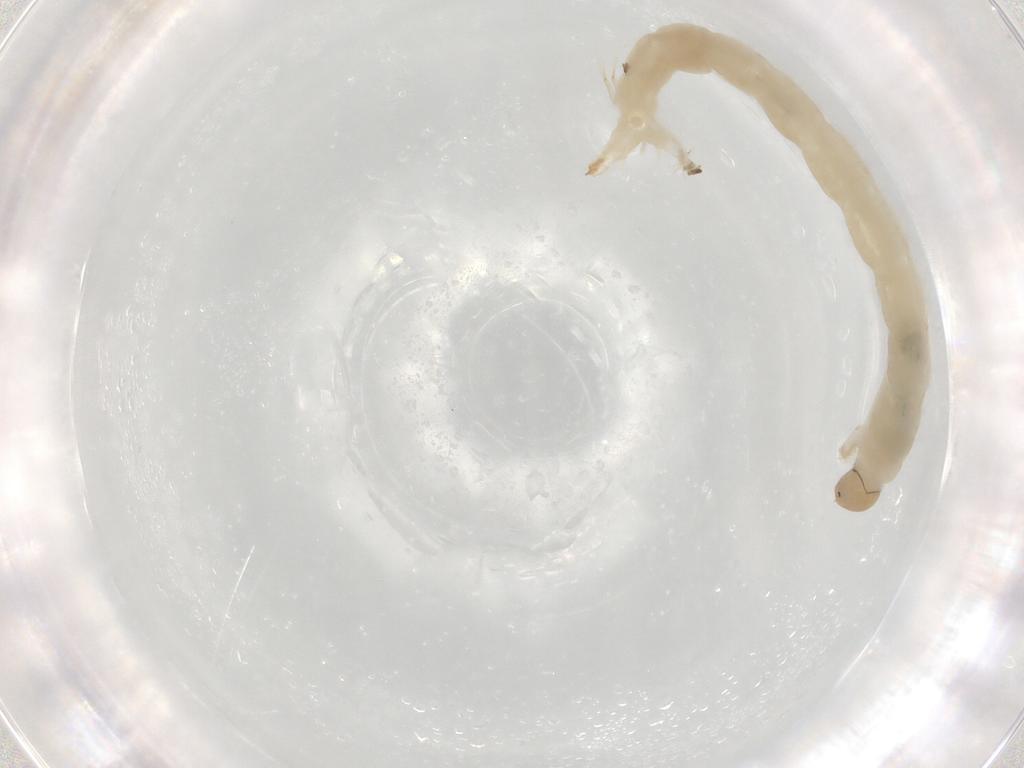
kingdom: Animalia
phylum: Arthropoda
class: Insecta
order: Diptera
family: Chironomidae
